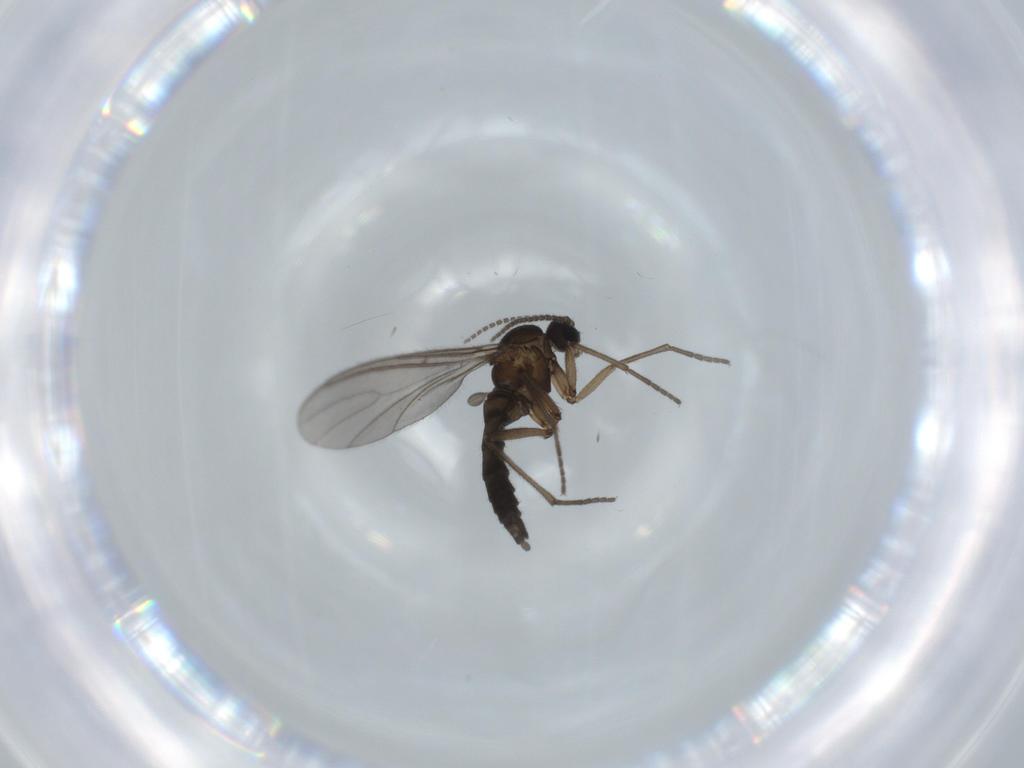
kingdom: Animalia
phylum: Arthropoda
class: Insecta
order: Diptera
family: Sciaridae
